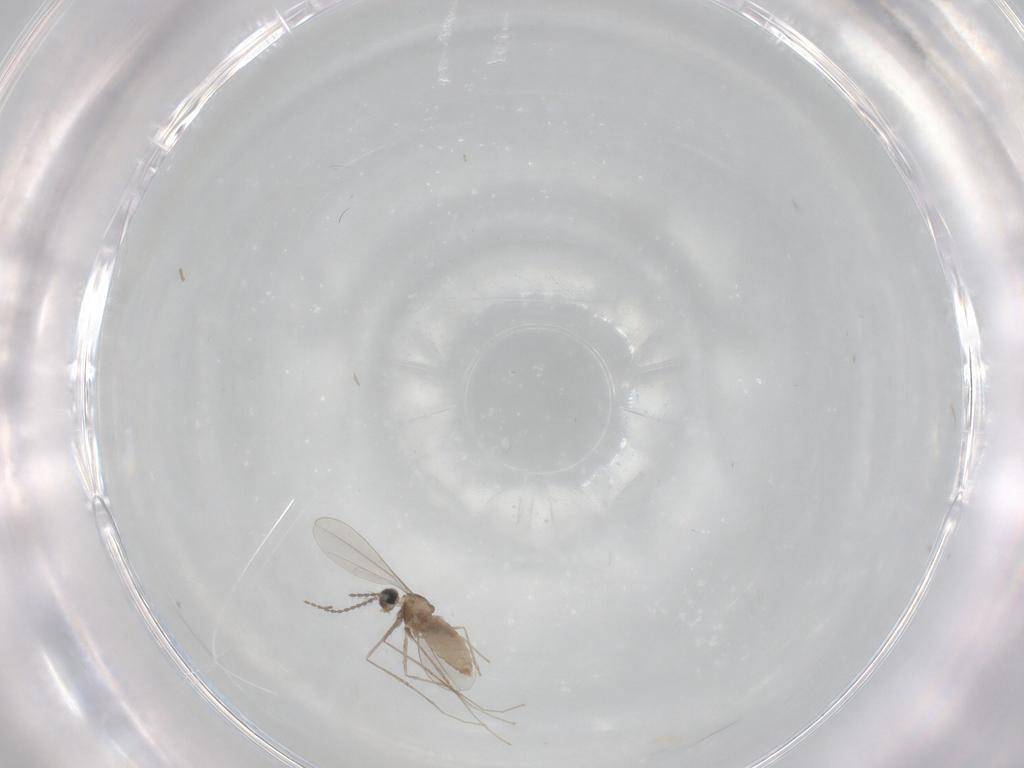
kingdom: Animalia
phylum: Arthropoda
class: Insecta
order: Diptera
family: Cecidomyiidae
